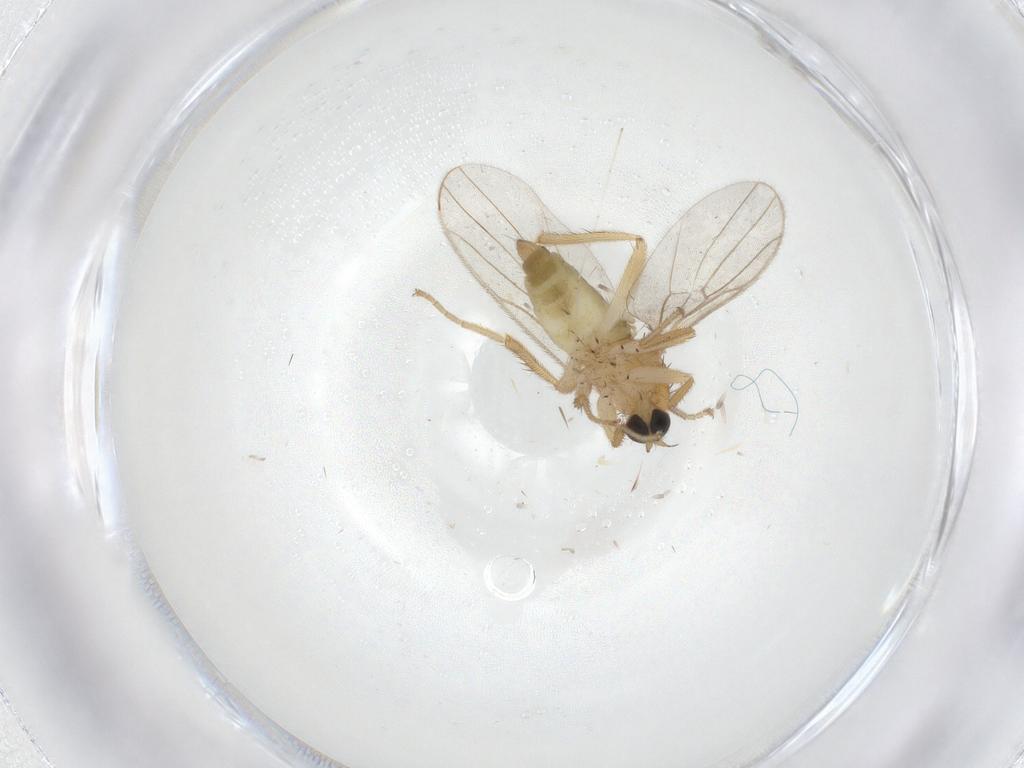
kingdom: Animalia
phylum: Arthropoda
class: Insecta
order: Diptera
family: Hybotidae
